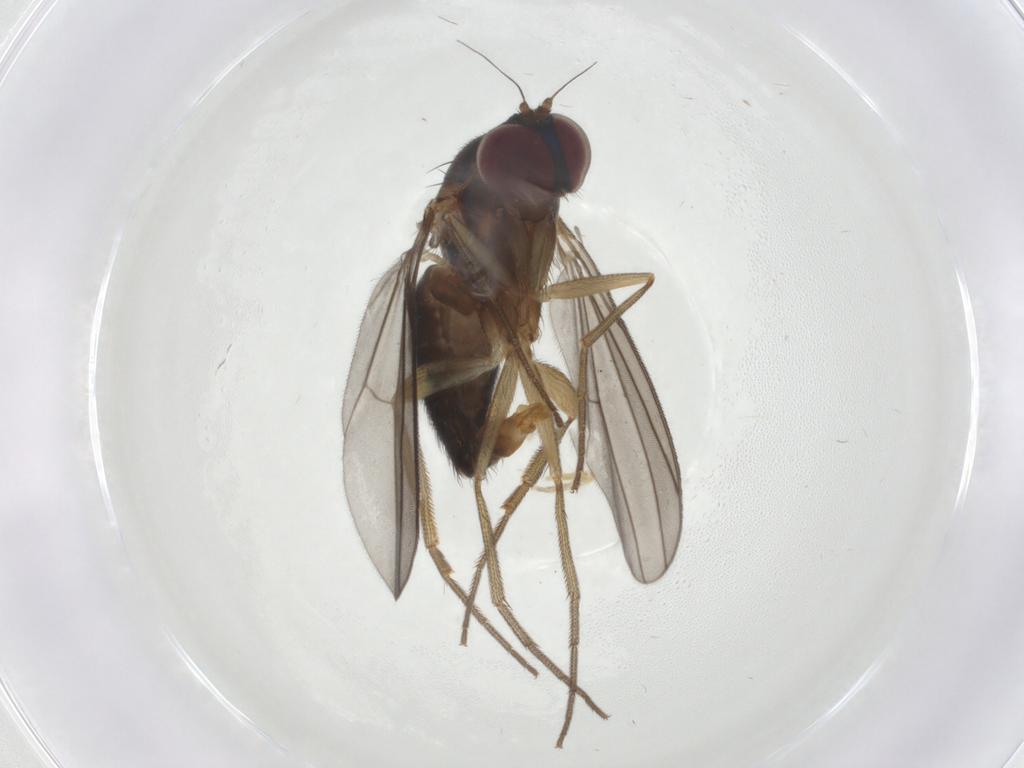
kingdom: Animalia
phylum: Arthropoda
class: Insecta
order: Diptera
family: Dolichopodidae
